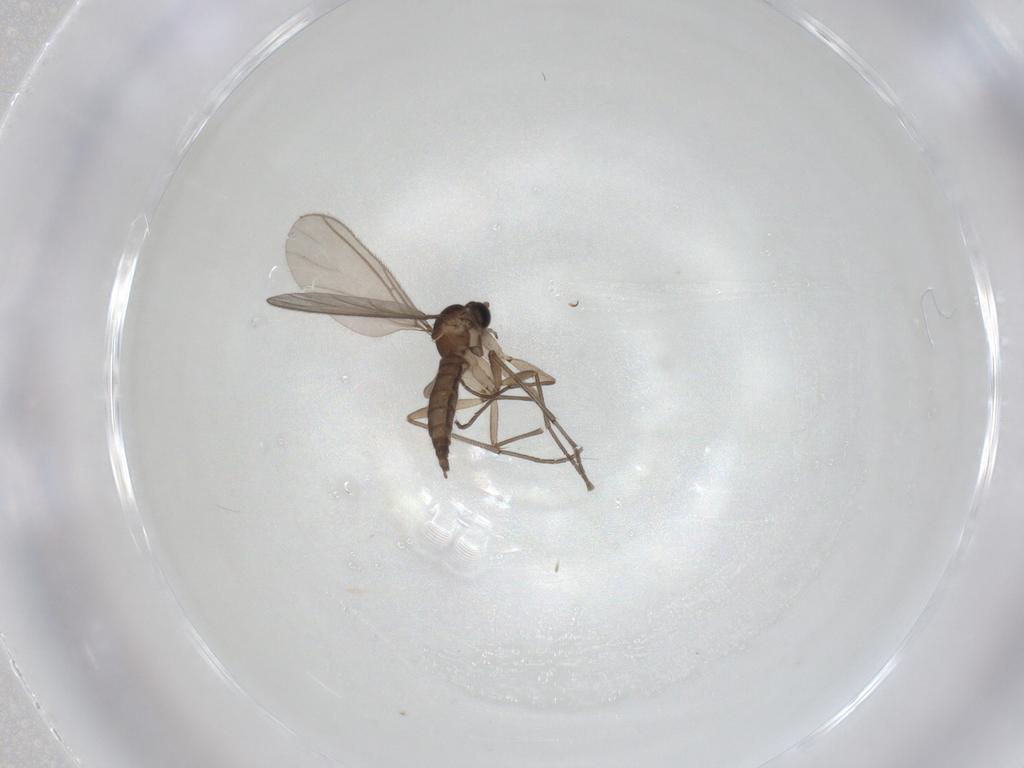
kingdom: Animalia
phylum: Arthropoda
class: Insecta
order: Diptera
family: Sciaridae
